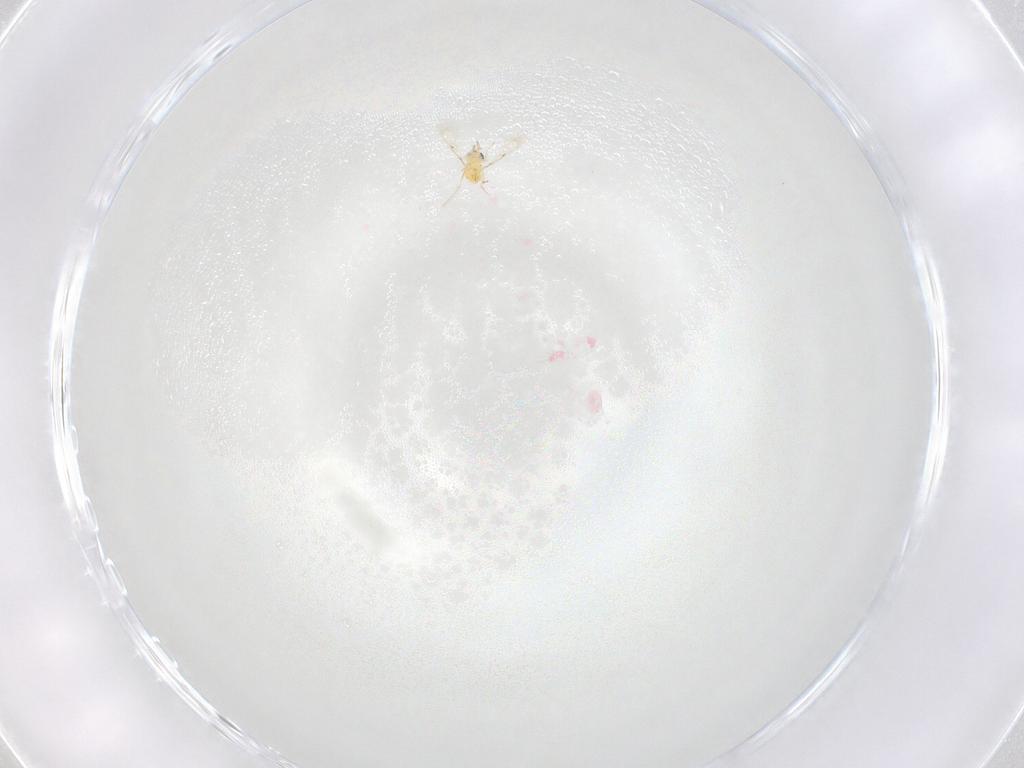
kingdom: Animalia
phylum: Arthropoda
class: Insecta
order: Hymenoptera
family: Trichogrammatidae
